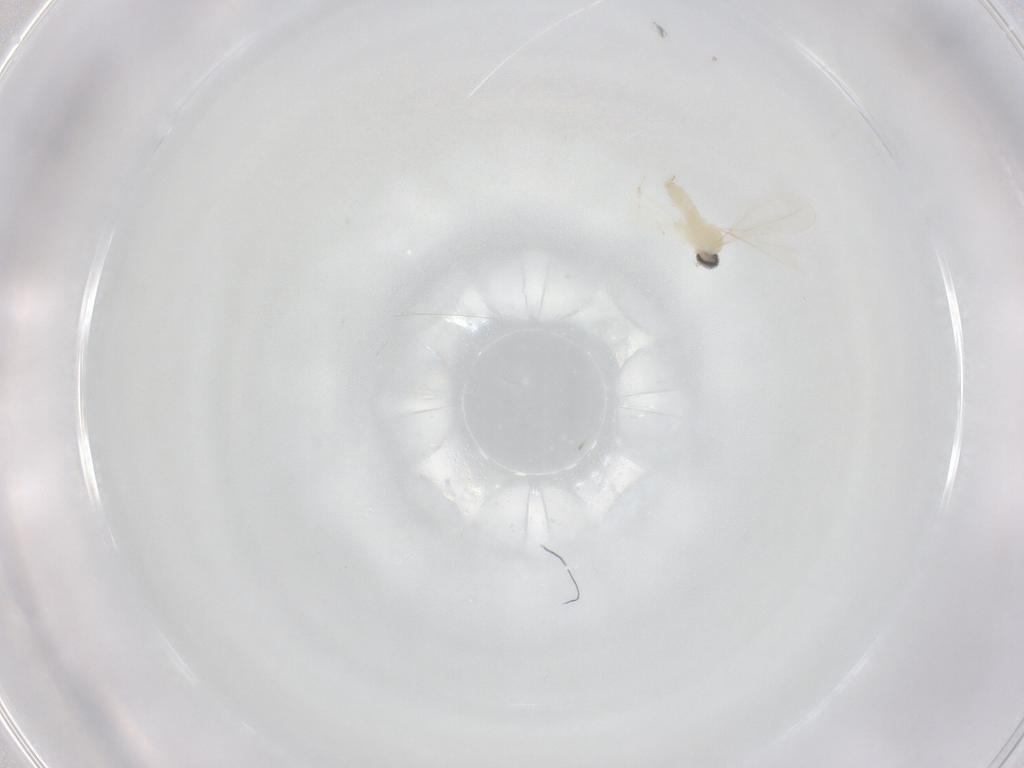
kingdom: Animalia
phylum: Arthropoda
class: Insecta
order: Diptera
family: Cecidomyiidae
